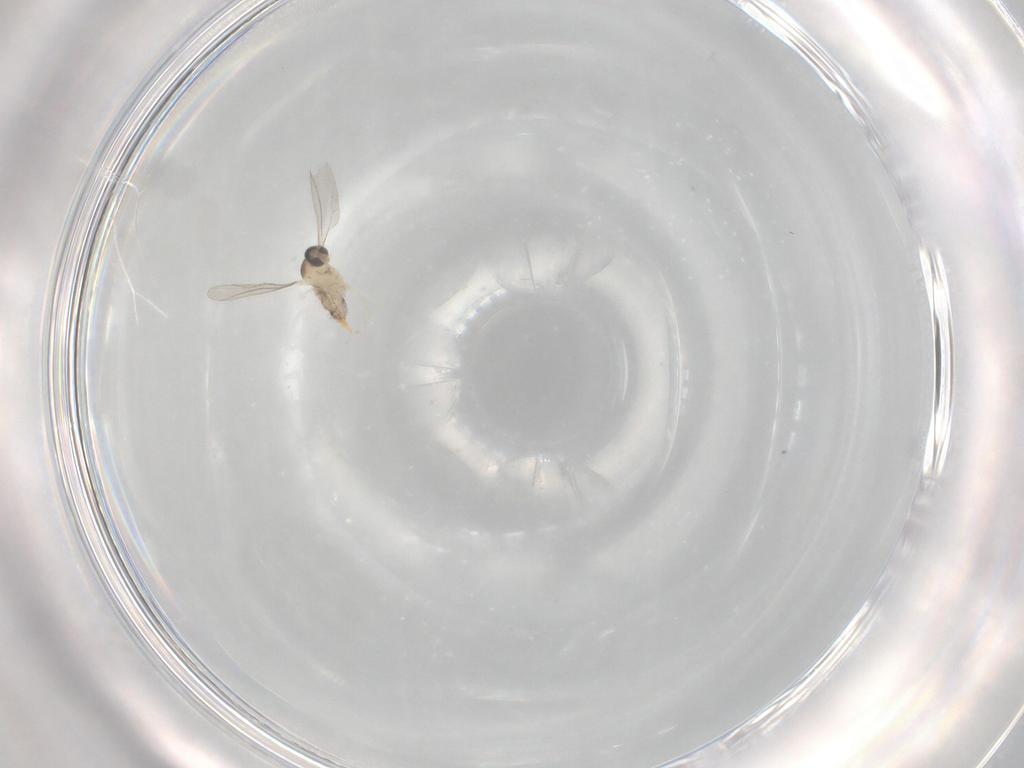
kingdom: Animalia
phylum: Arthropoda
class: Insecta
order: Diptera
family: Cecidomyiidae
